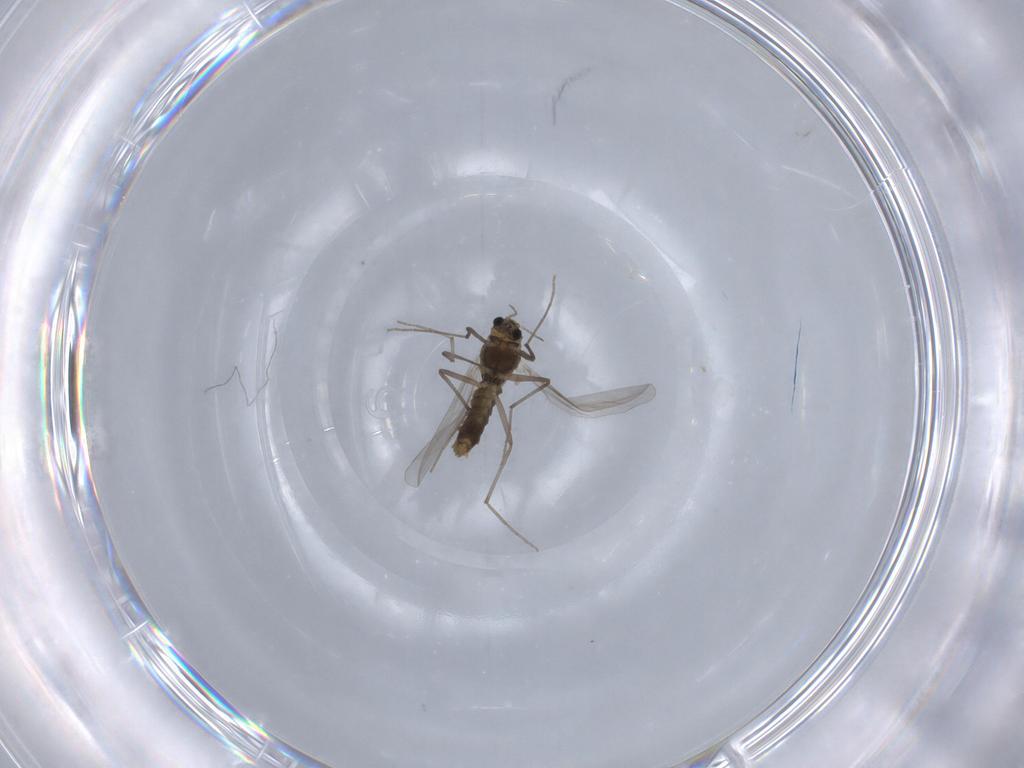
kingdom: Animalia
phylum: Arthropoda
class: Insecta
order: Diptera
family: Chironomidae
